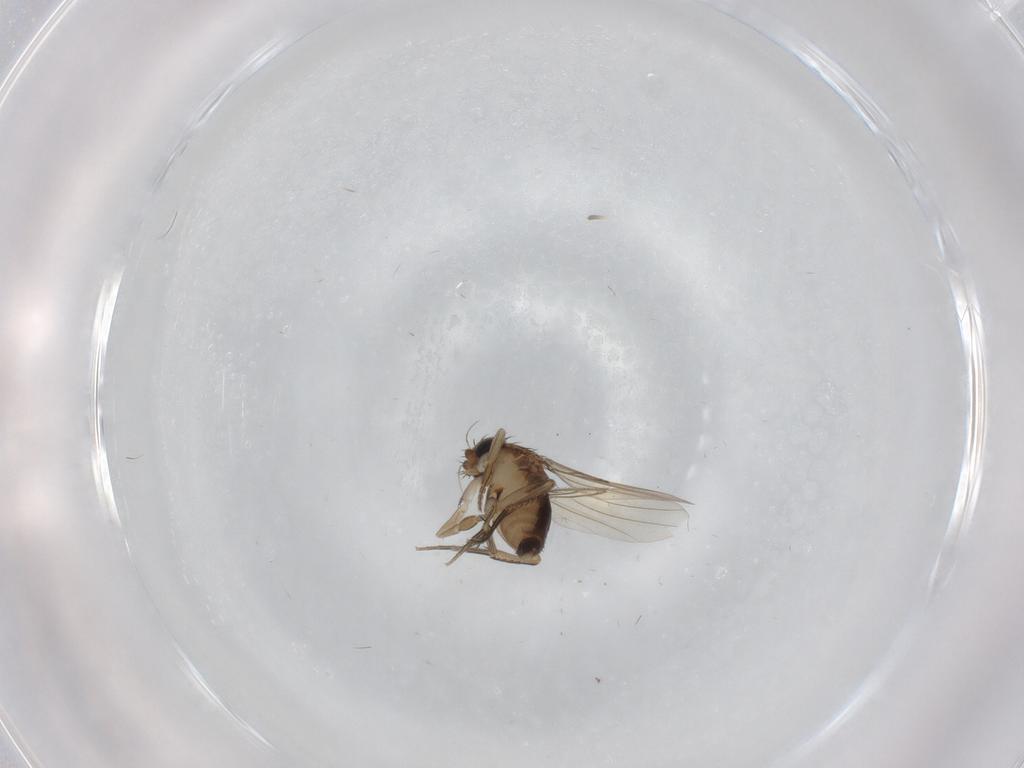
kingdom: Animalia
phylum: Arthropoda
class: Insecta
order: Diptera
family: Cecidomyiidae
